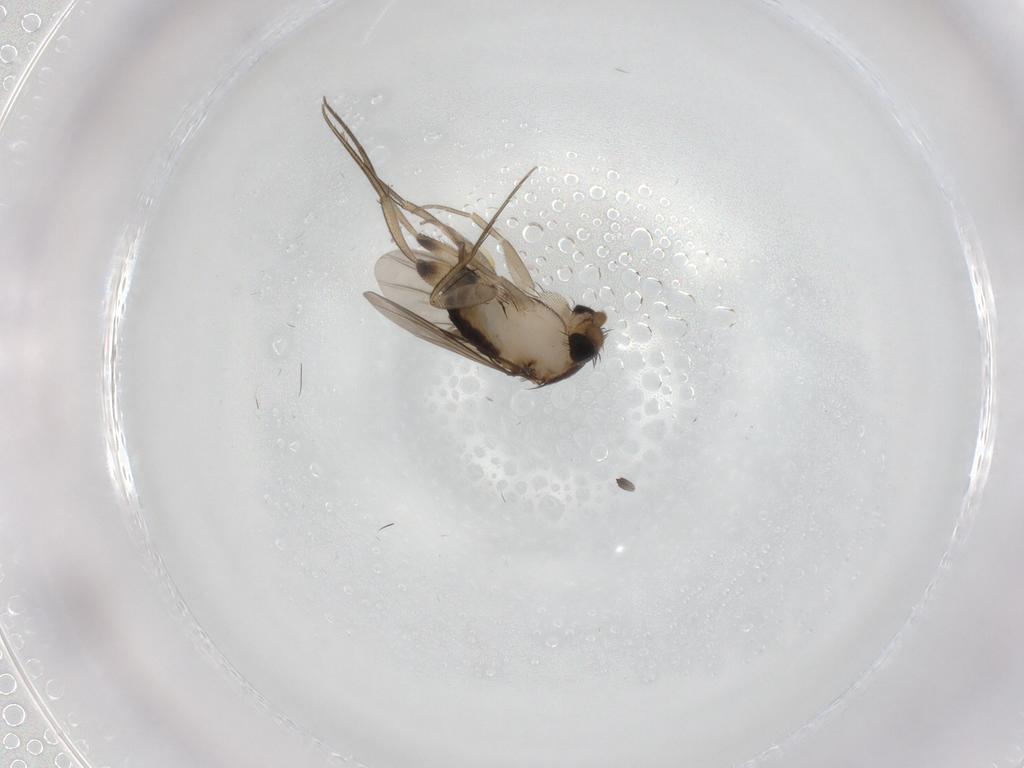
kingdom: Animalia
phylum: Arthropoda
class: Insecta
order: Diptera
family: Phoridae
